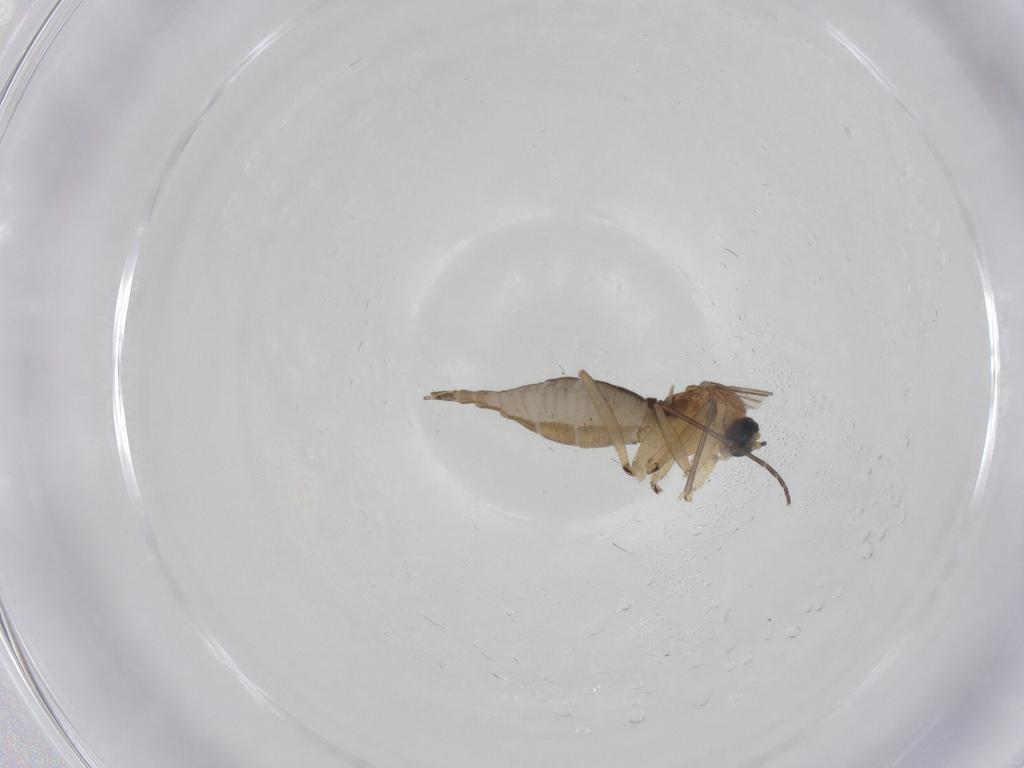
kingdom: Animalia
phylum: Arthropoda
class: Insecta
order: Diptera
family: Sciaridae
